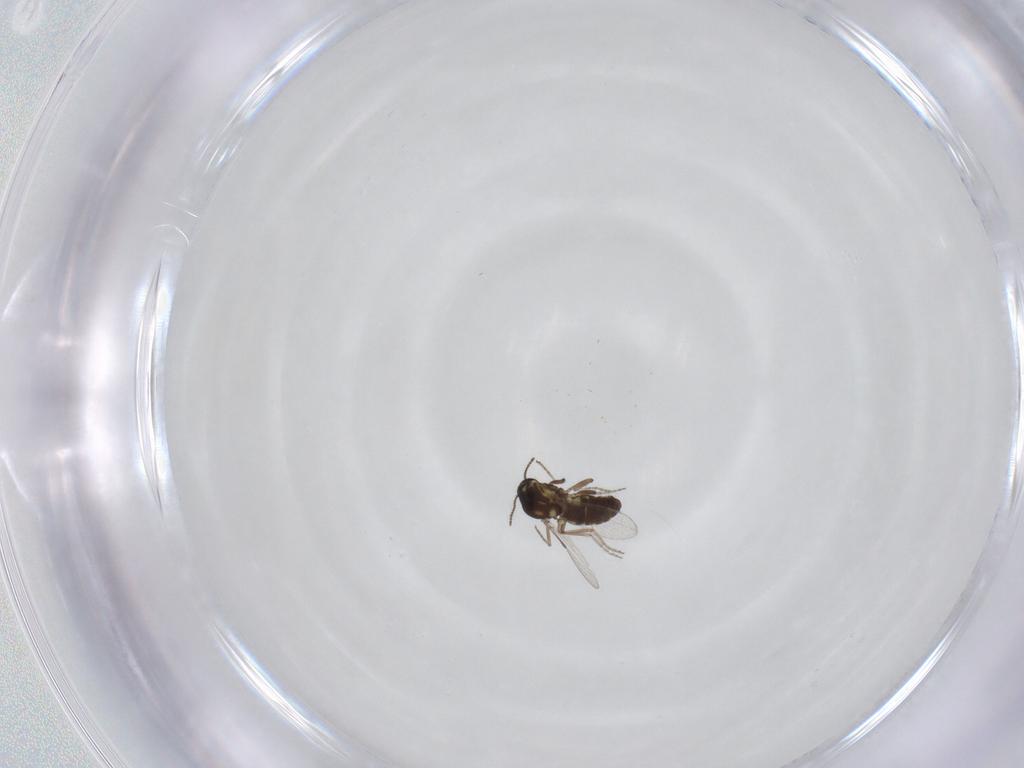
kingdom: Animalia
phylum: Arthropoda
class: Insecta
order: Diptera
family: Ceratopogonidae
